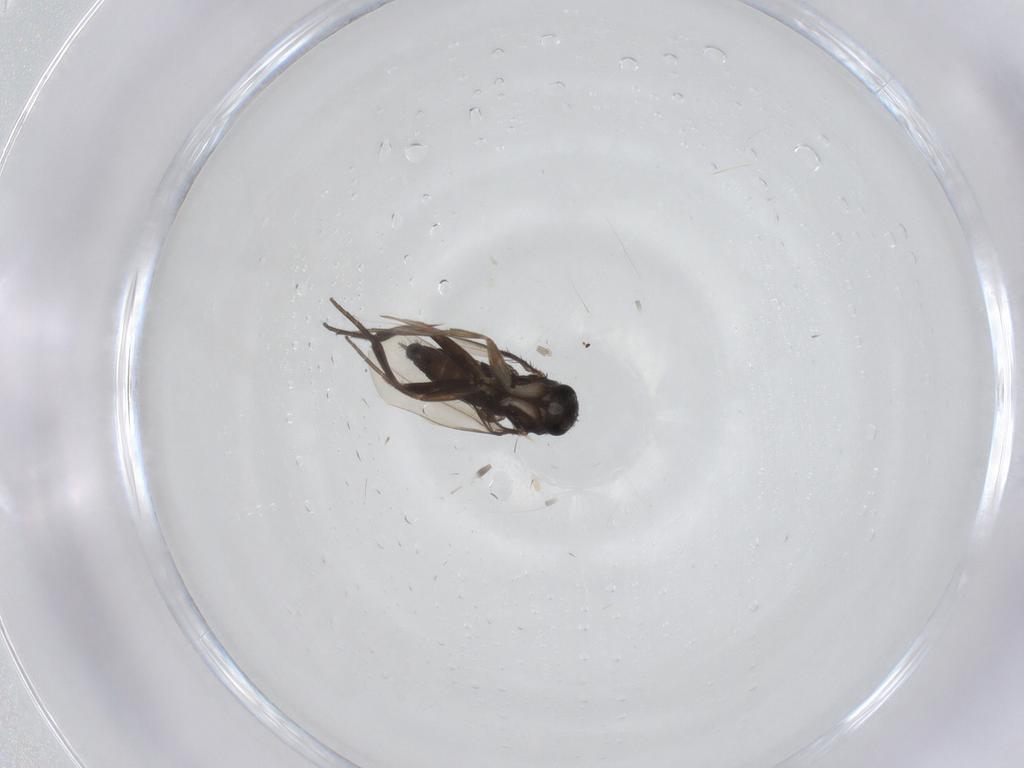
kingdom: Animalia
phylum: Arthropoda
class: Insecta
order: Diptera
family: Phoridae
